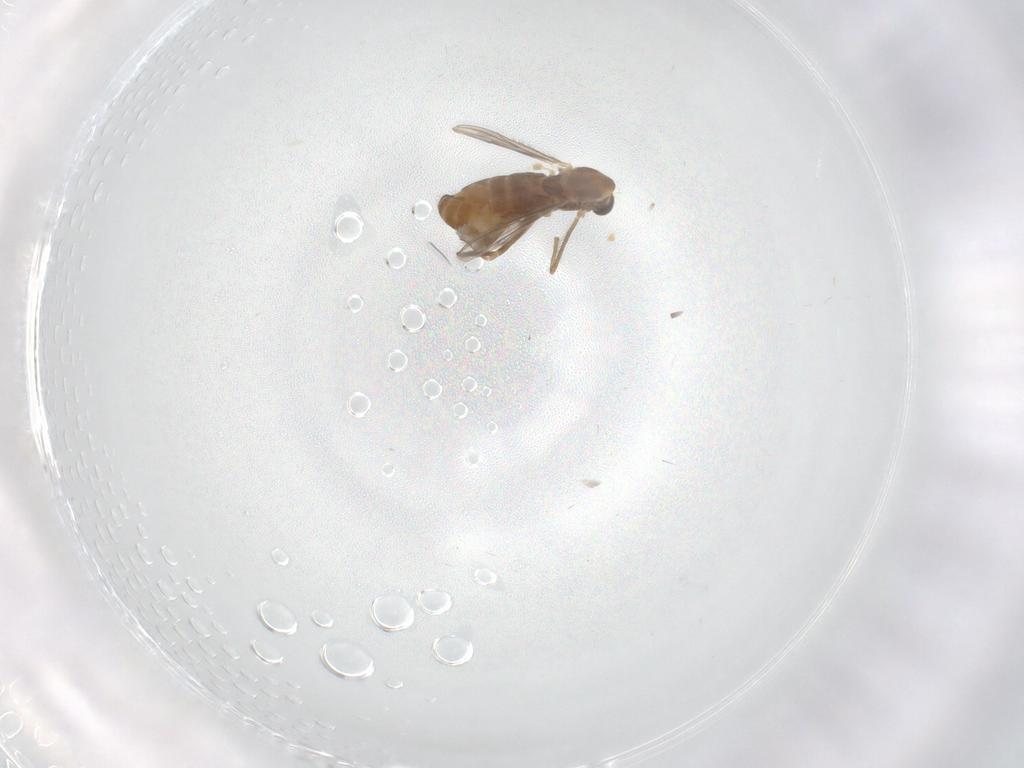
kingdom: Animalia
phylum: Arthropoda
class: Insecta
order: Diptera
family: Chironomidae
